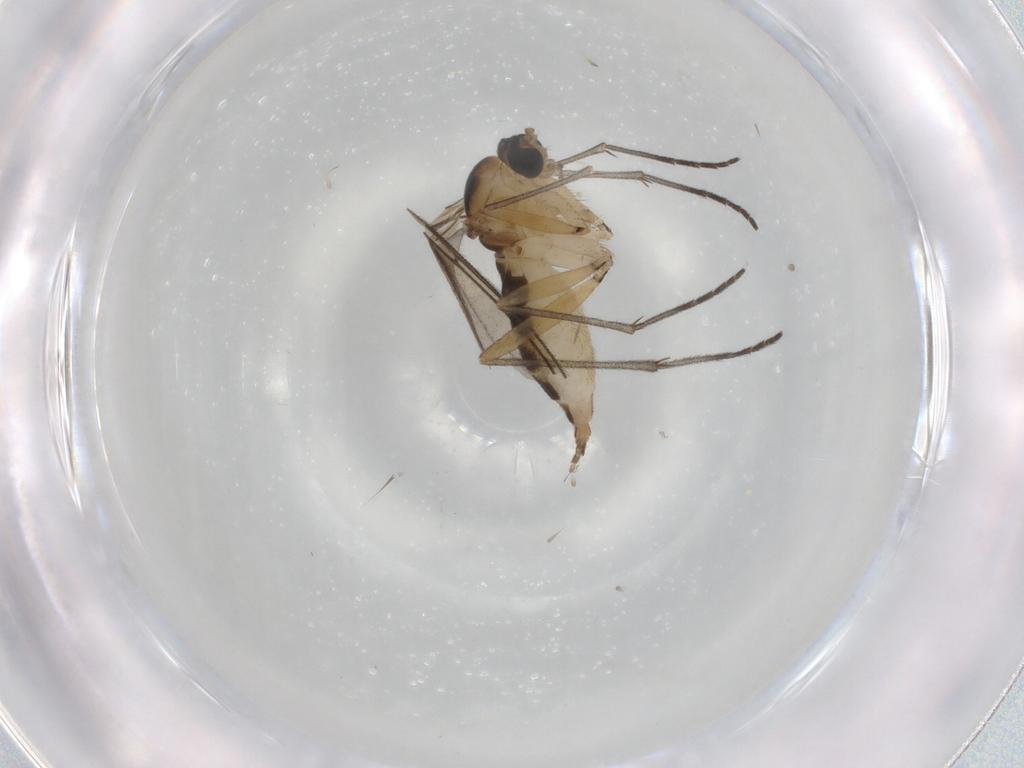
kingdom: Animalia
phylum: Arthropoda
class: Insecta
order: Diptera
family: Sciaridae
